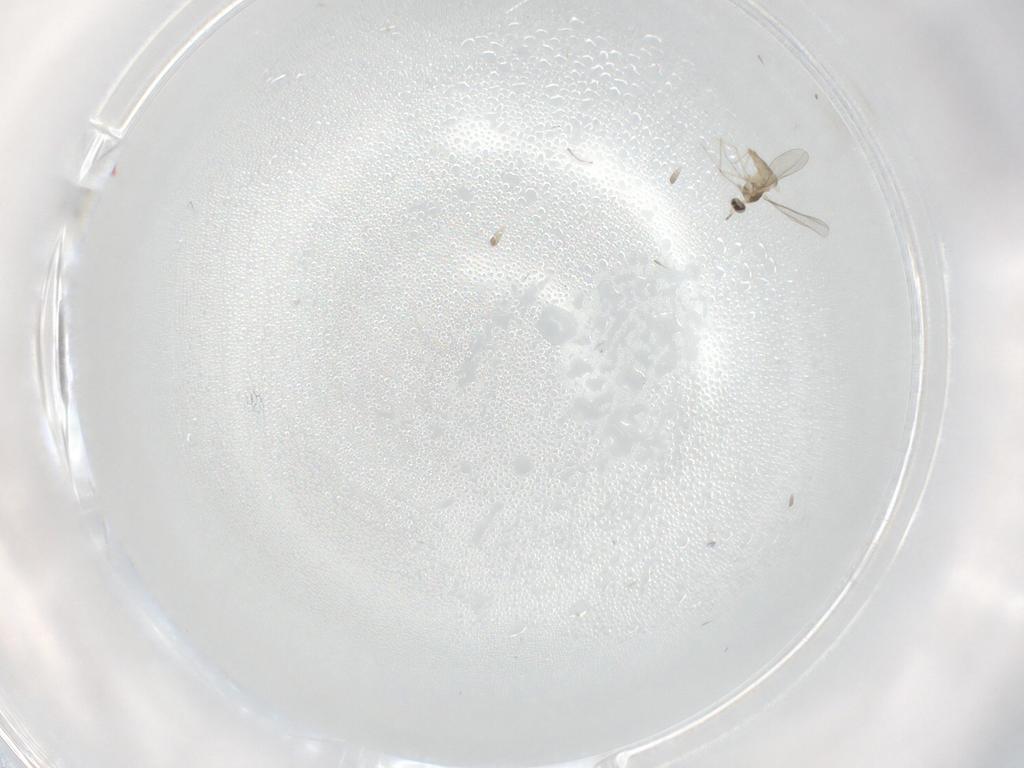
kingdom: Animalia
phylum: Arthropoda
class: Insecta
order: Diptera
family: Cecidomyiidae
